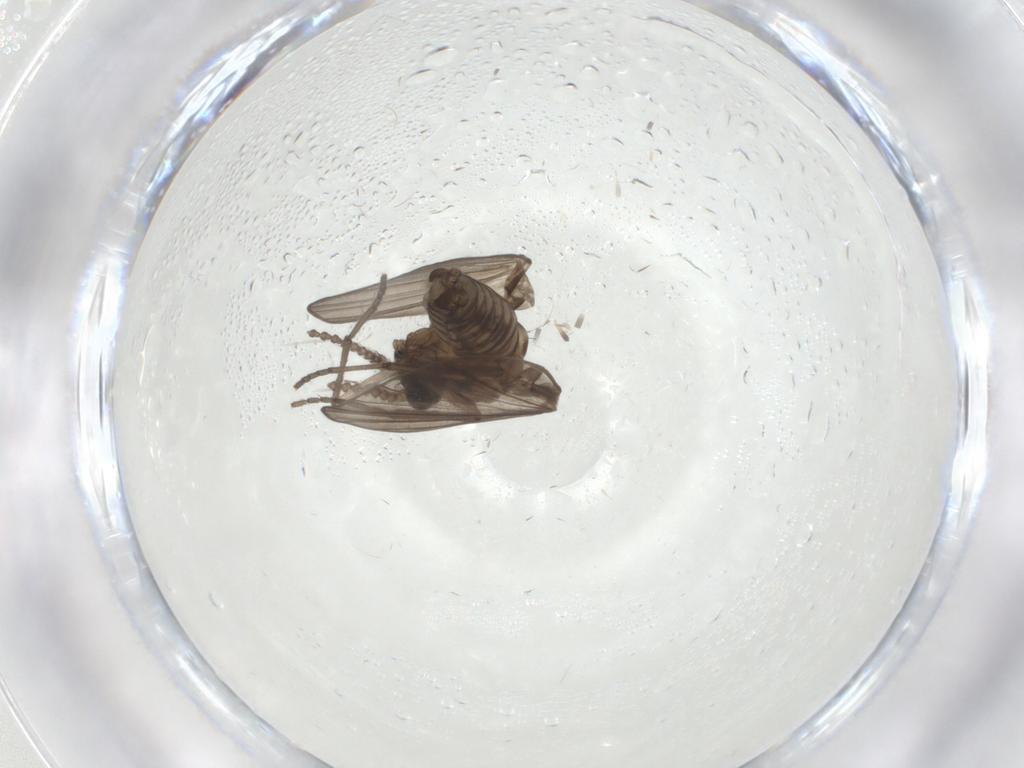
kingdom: Animalia
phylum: Arthropoda
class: Insecta
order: Diptera
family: Psychodidae
